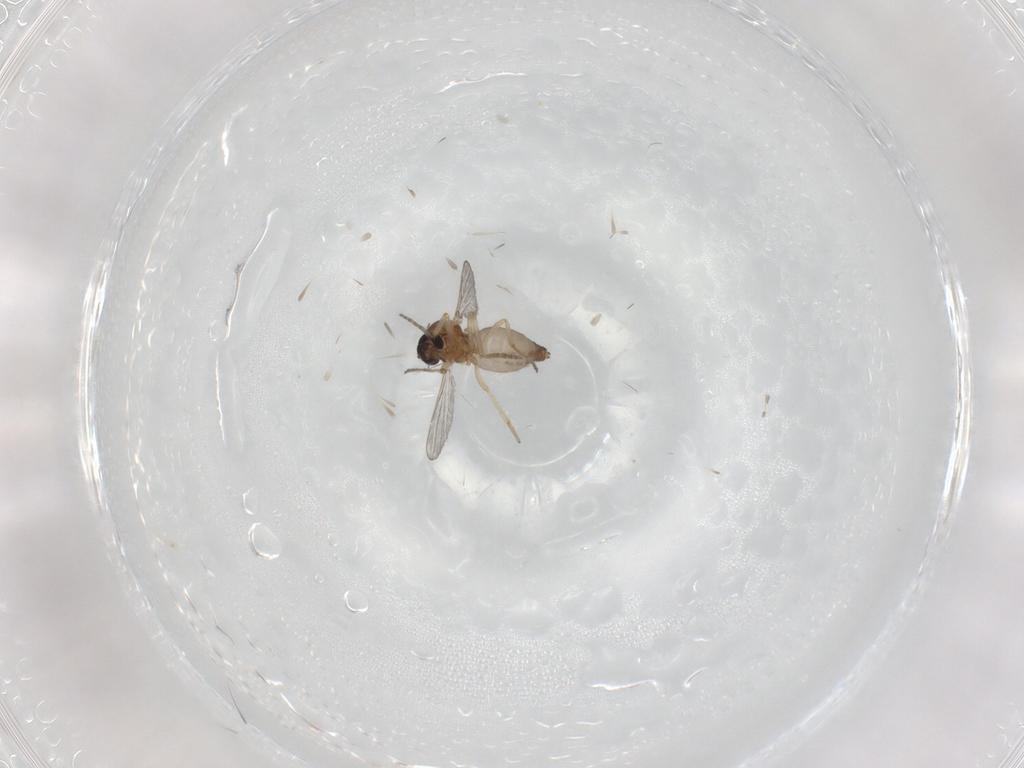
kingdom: Animalia
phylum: Arthropoda
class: Insecta
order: Diptera
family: Ceratopogonidae
